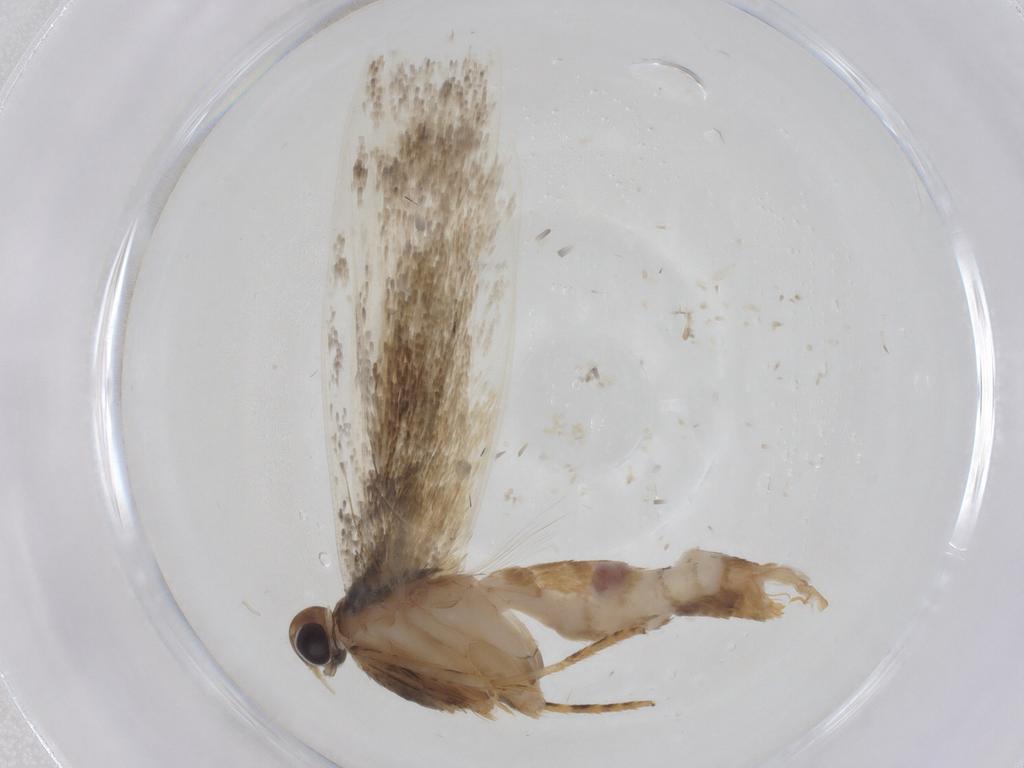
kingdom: Animalia
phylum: Arthropoda
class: Insecta
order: Lepidoptera
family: Gelechiidae
